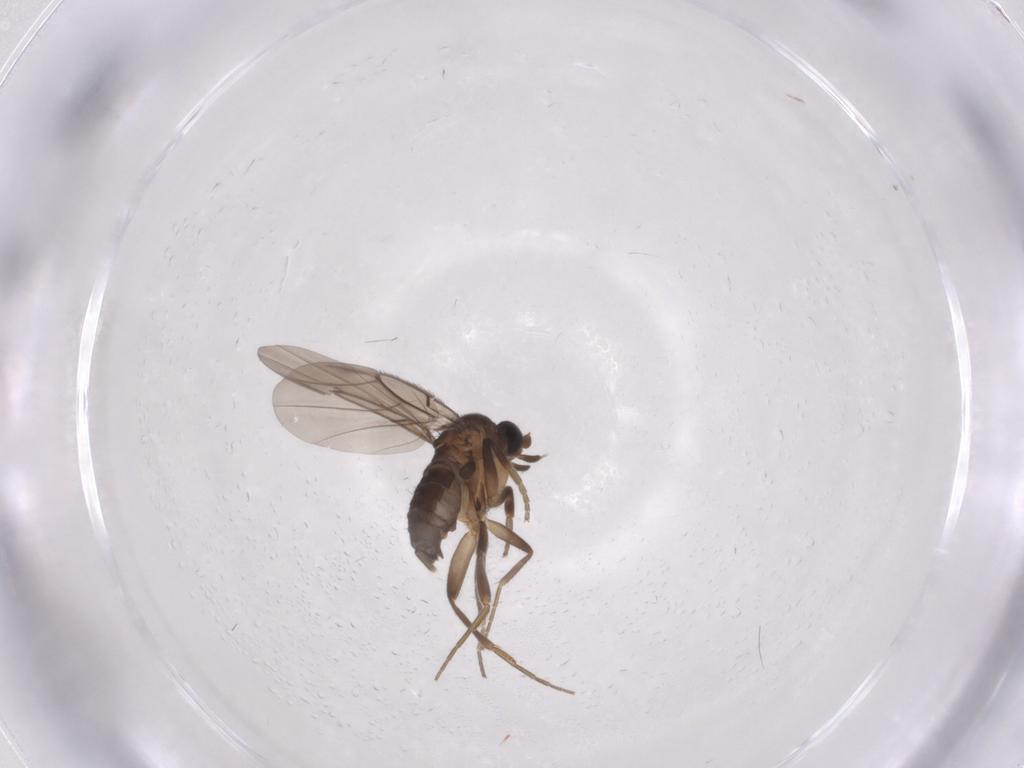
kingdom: Animalia
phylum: Arthropoda
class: Insecta
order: Diptera
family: Phoridae
